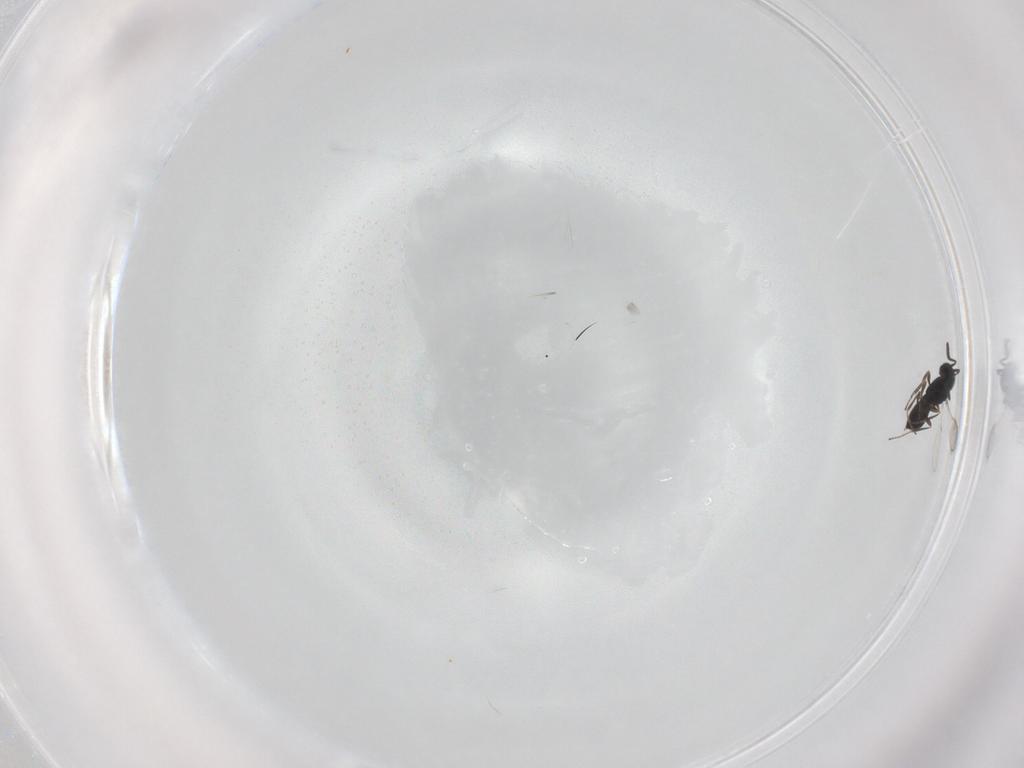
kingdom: Animalia
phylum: Arthropoda
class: Insecta
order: Hymenoptera
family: Scelionidae
